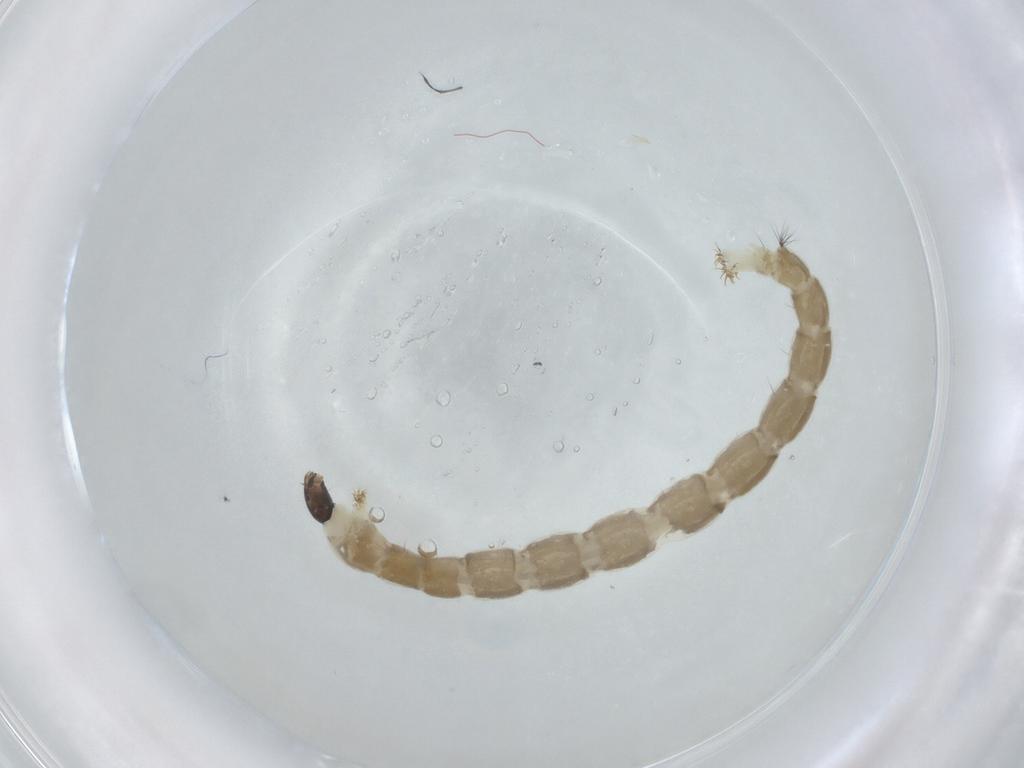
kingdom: Animalia
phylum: Arthropoda
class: Insecta
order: Diptera
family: Chironomidae
